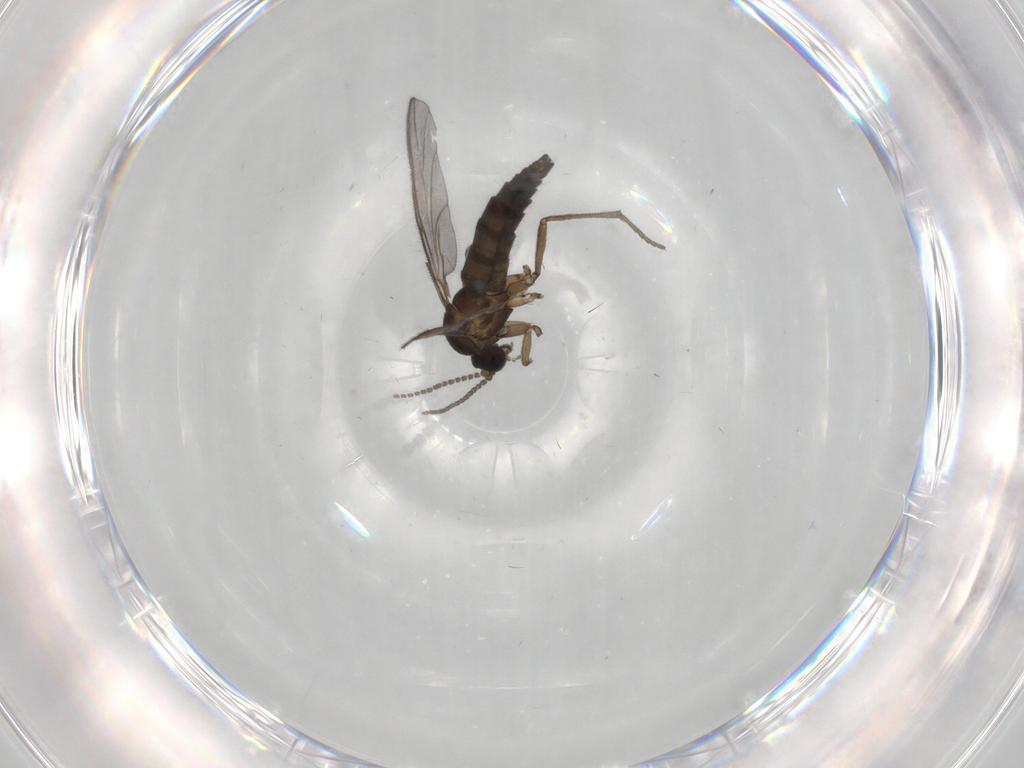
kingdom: Animalia
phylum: Arthropoda
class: Insecta
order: Diptera
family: Sciaridae
